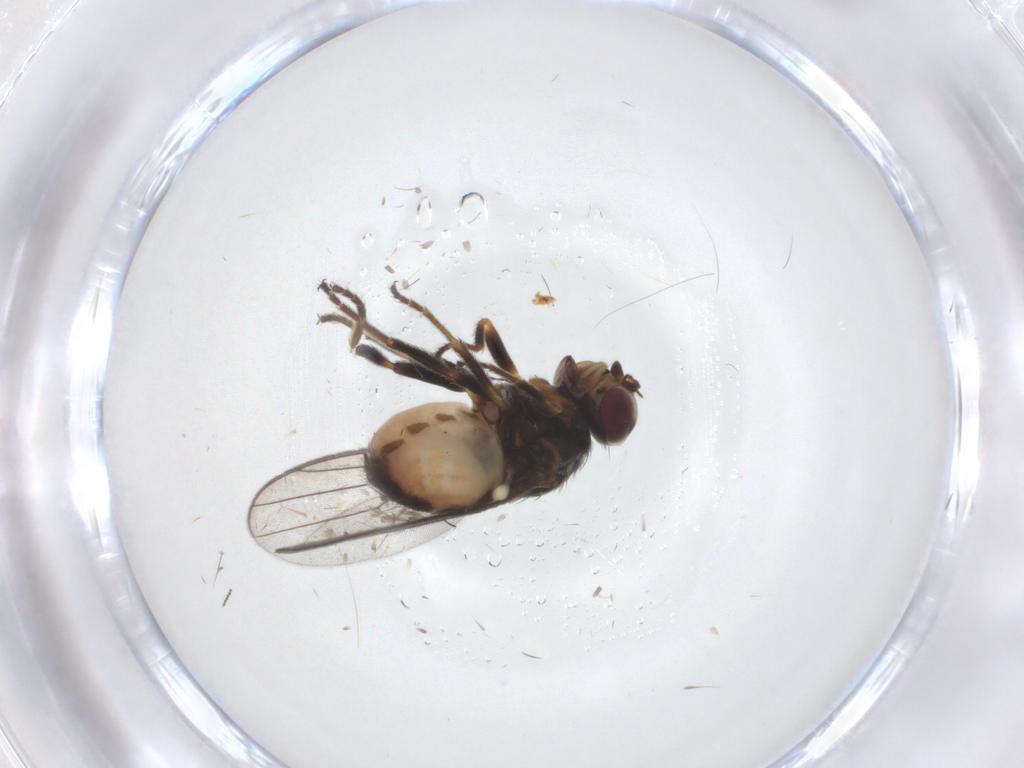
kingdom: Animalia
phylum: Arthropoda
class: Insecta
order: Diptera
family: Chloropidae
